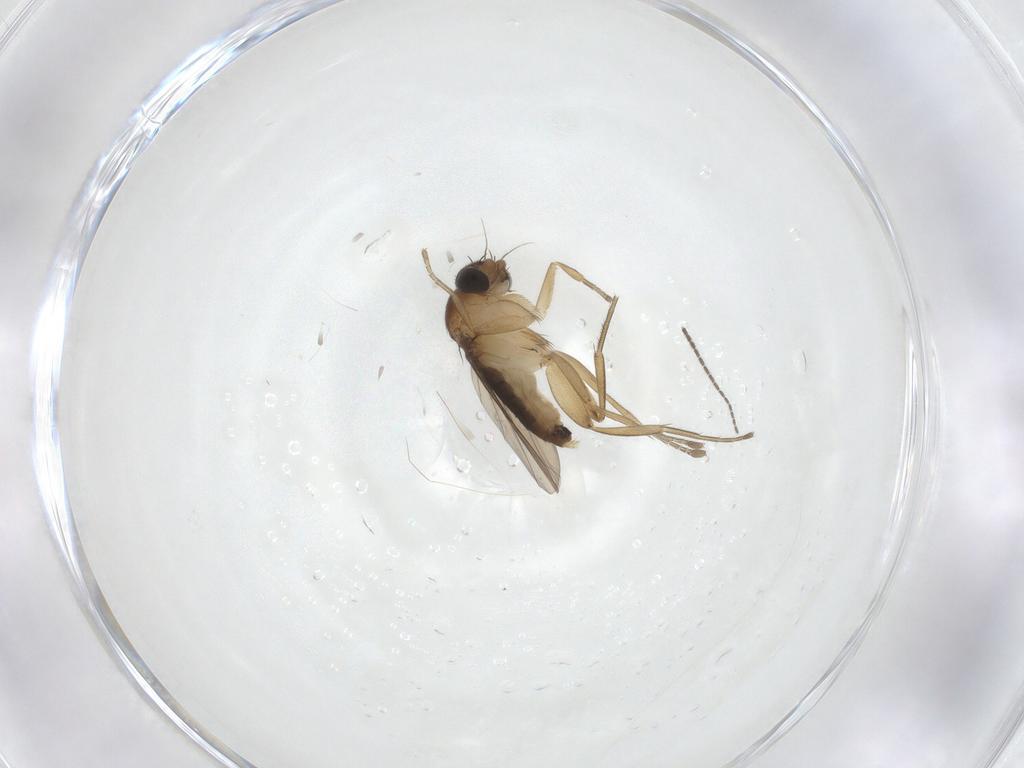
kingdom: Animalia
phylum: Arthropoda
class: Insecta
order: Diptera
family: Phoridae
